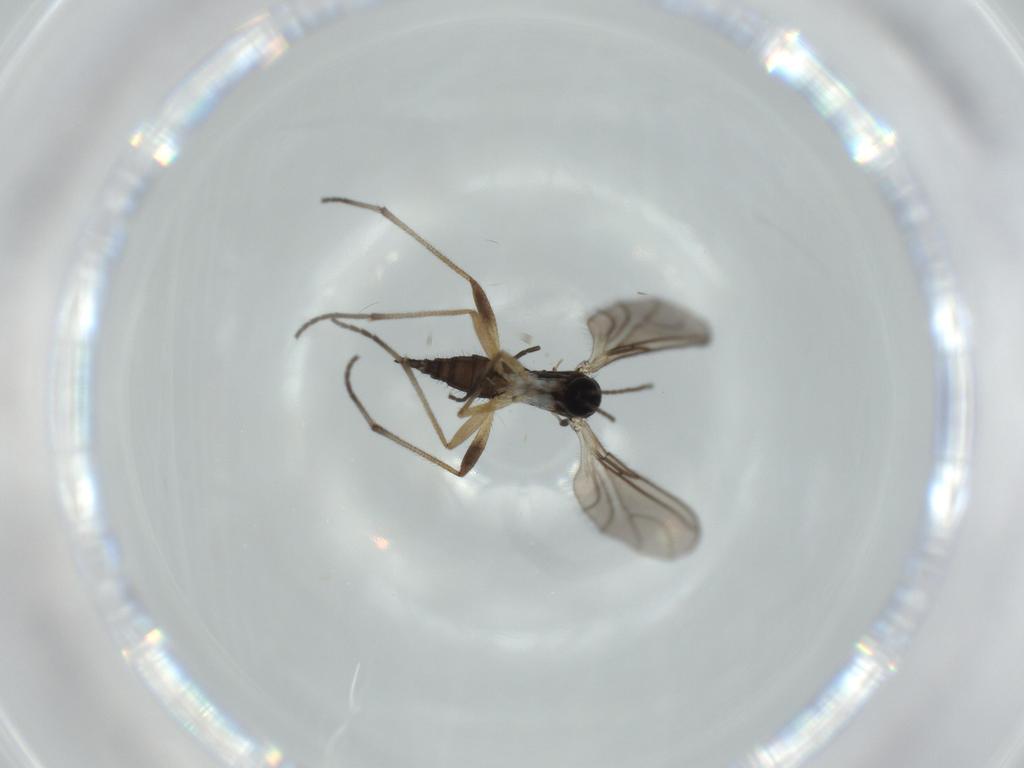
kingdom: Animalia
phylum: Arthropoda
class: Insecta
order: Diptera
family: Sciaridae
